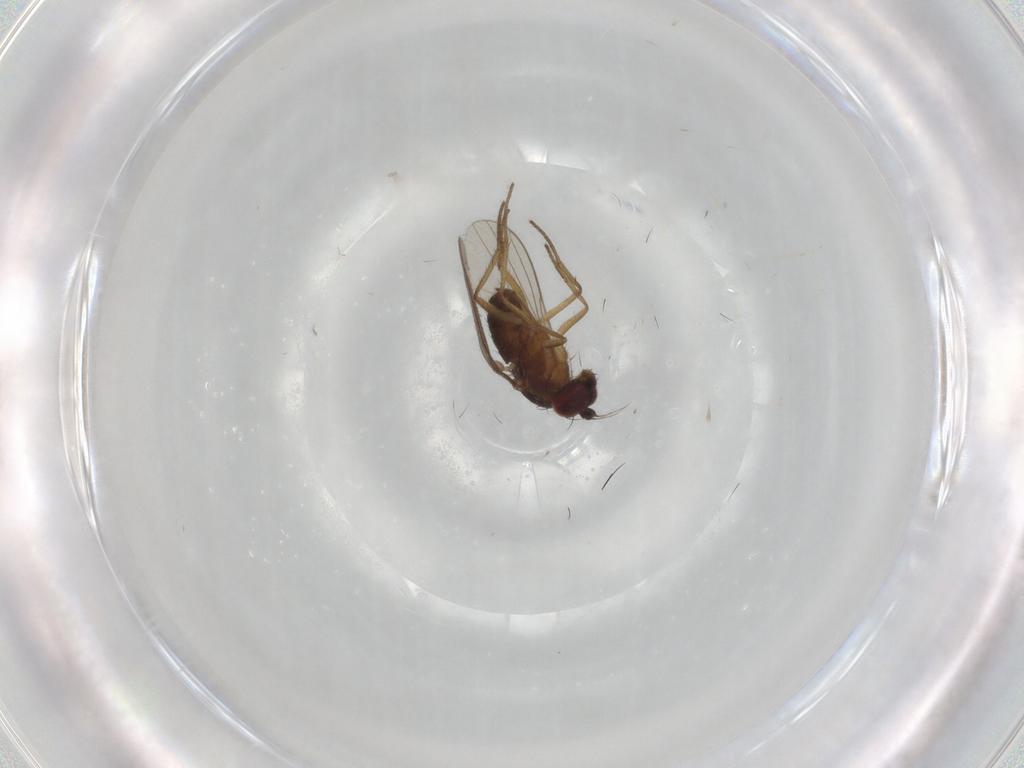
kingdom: Animalia
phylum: Arthropoda
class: Insecta
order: Diptera
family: Dolichopodidae
